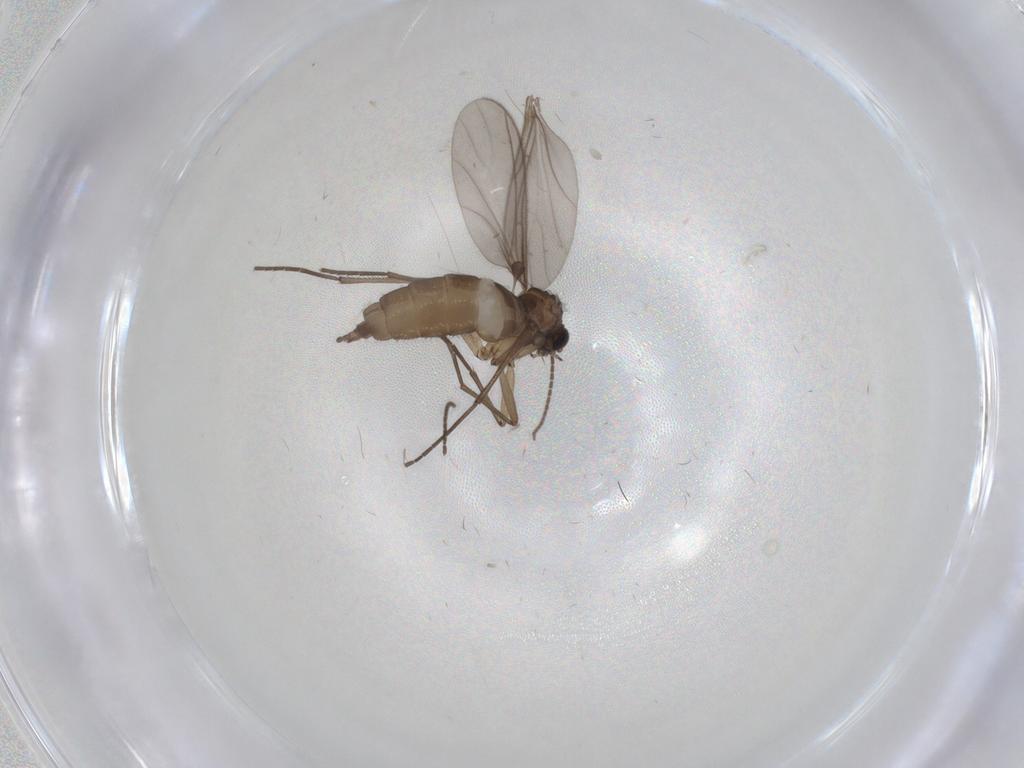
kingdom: Animalia
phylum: Arthropoda
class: Insecta
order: Diptera
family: Sciaridae
